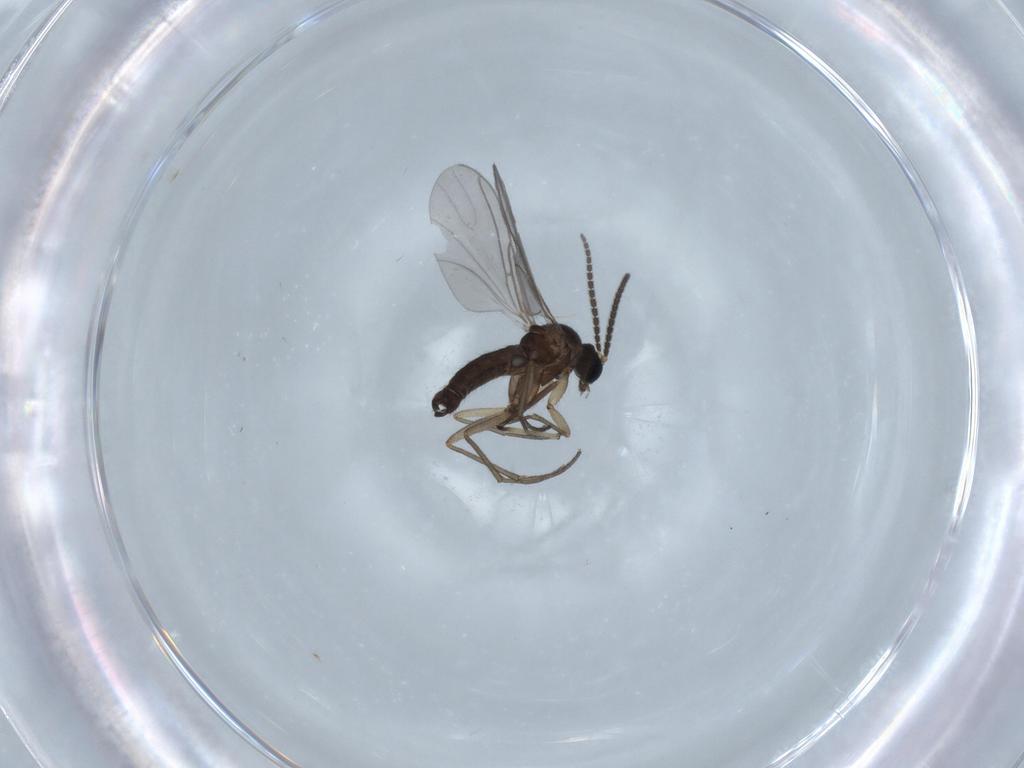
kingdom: Animalia
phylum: Arthropoda
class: Insecta
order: Diptera
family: Sciaridae
